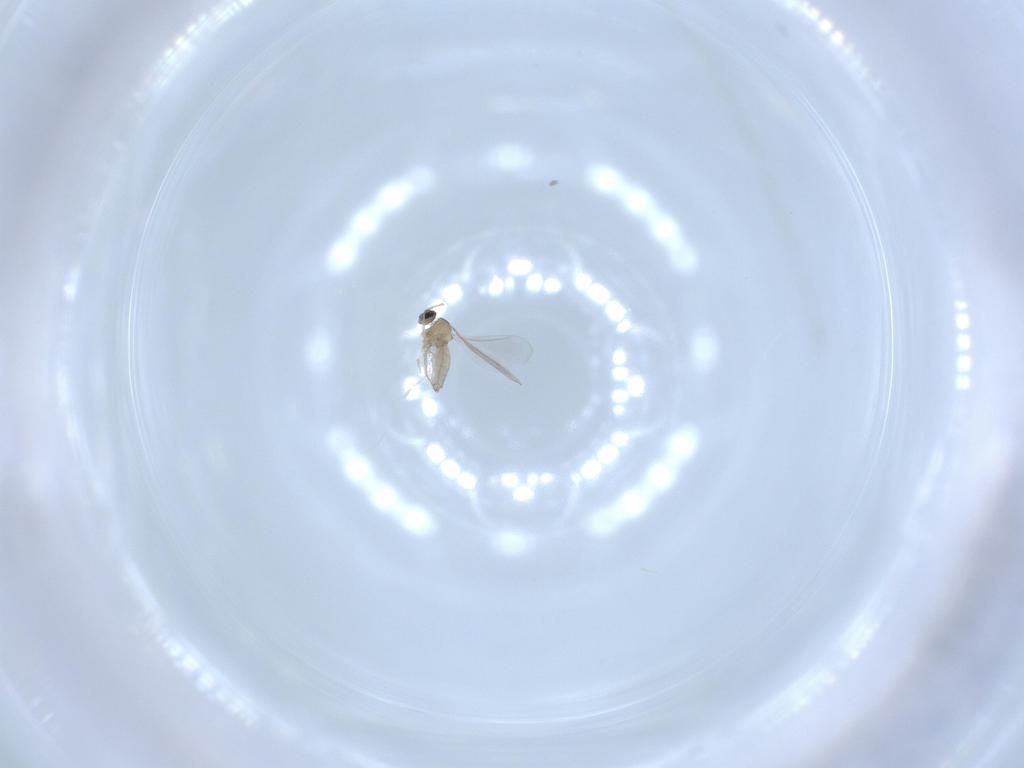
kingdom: Animalia
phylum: Arthropoda
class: Insecta
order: Diptera
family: Cecidomyiidae
